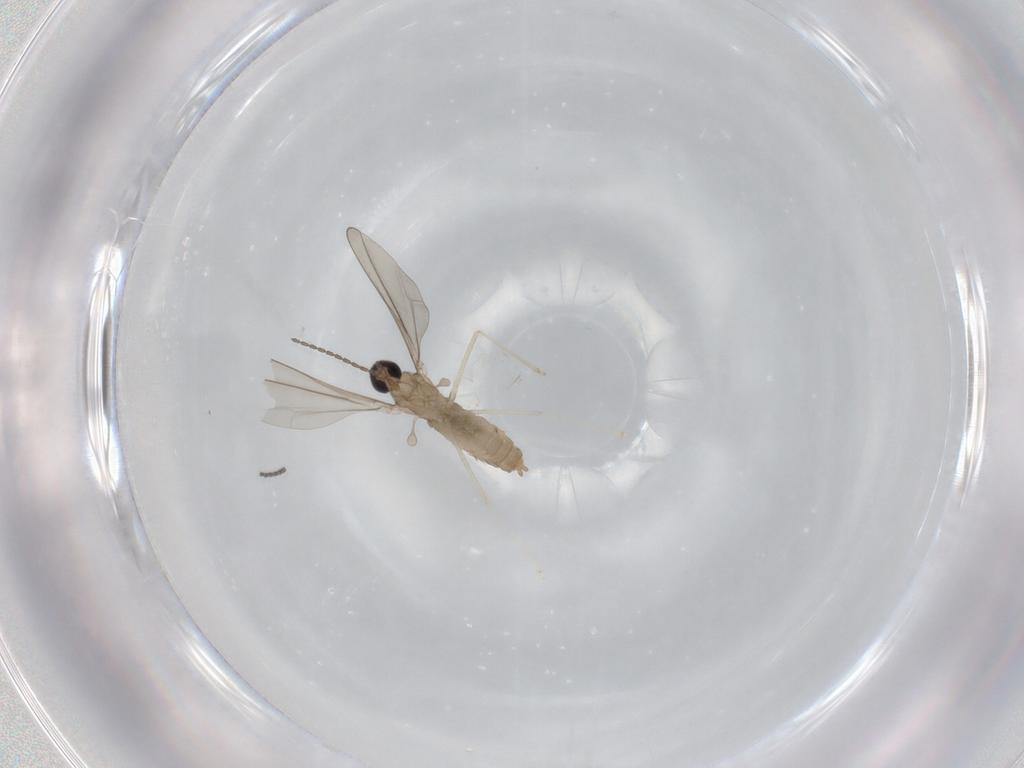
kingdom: Animalia
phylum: Arthropoda
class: Insecta
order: Diptera
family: Sciaridae
